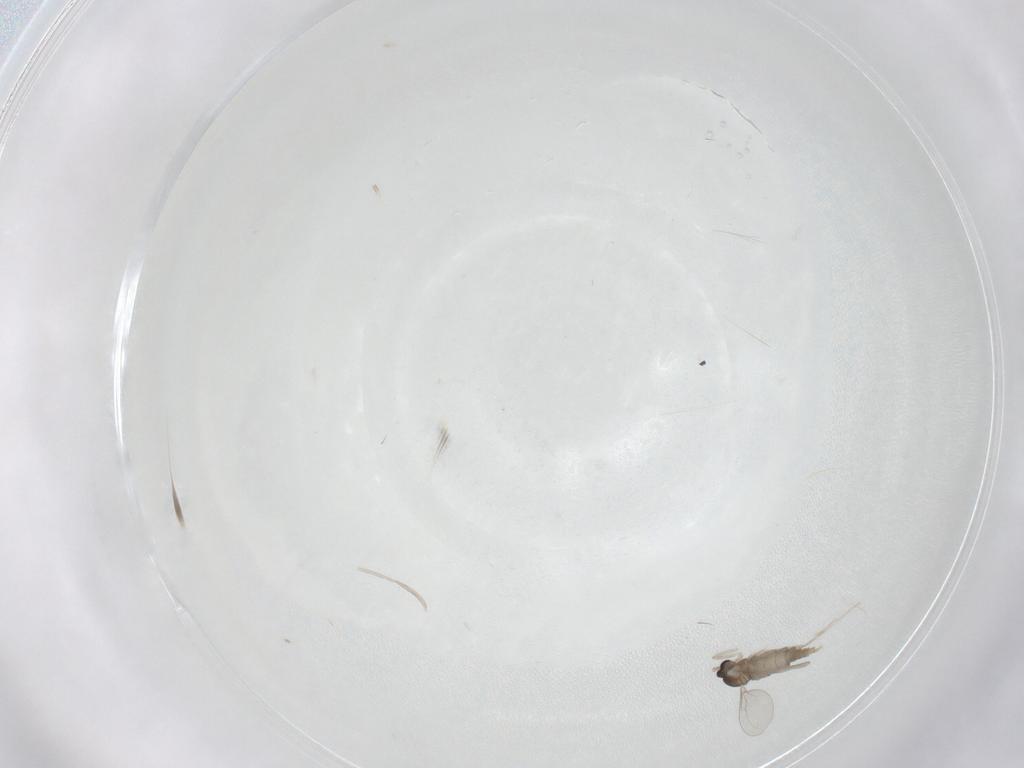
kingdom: Animalia
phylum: Arthropoda
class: Insecta
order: Diptera
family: Cecidomyiidae
